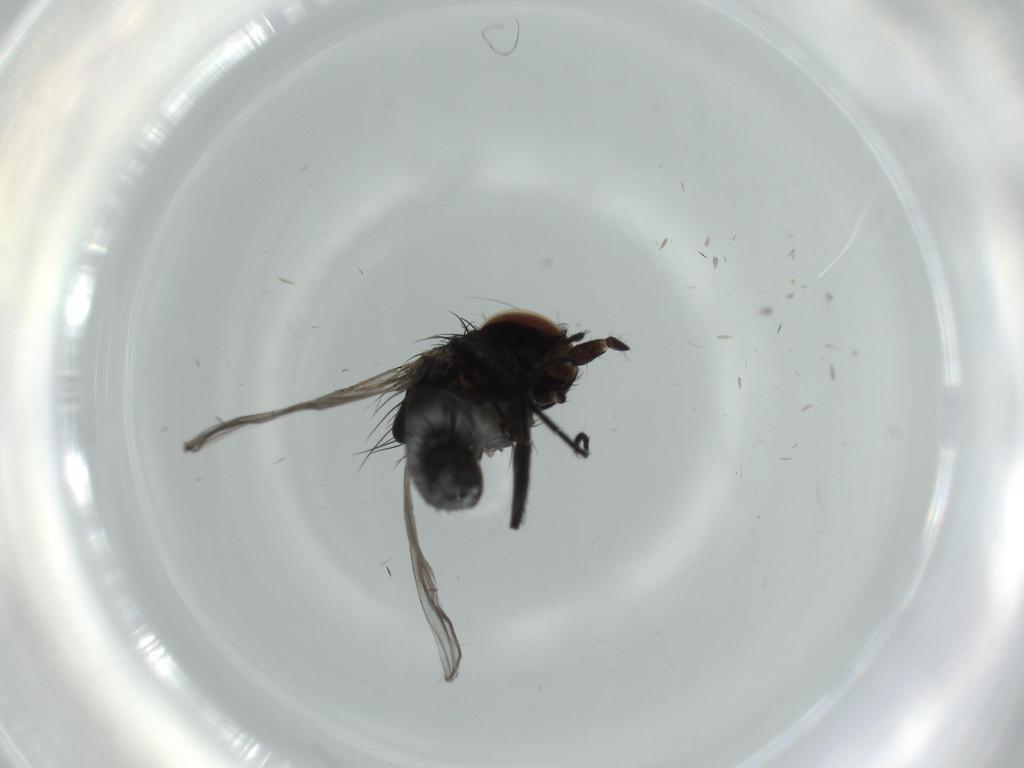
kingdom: Animalia
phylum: Arthropoda
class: Insecta
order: Diptera
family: Milichiidae
